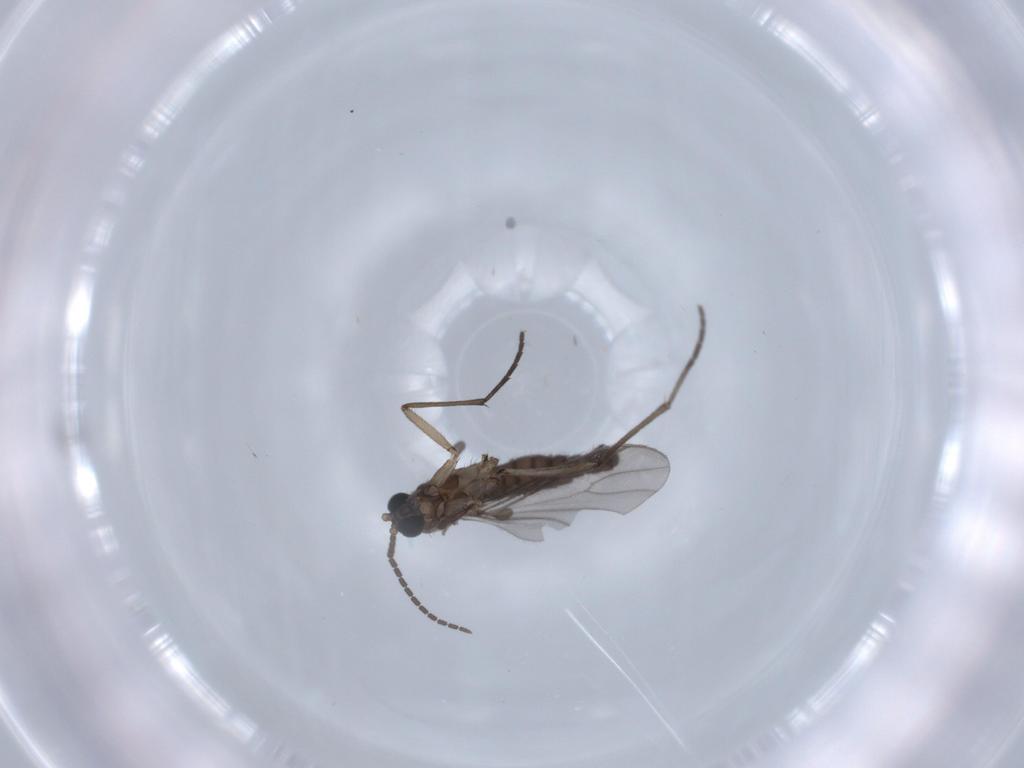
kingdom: Animalia
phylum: Arthropoda
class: Insecta
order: Diptera
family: Sciaridae
